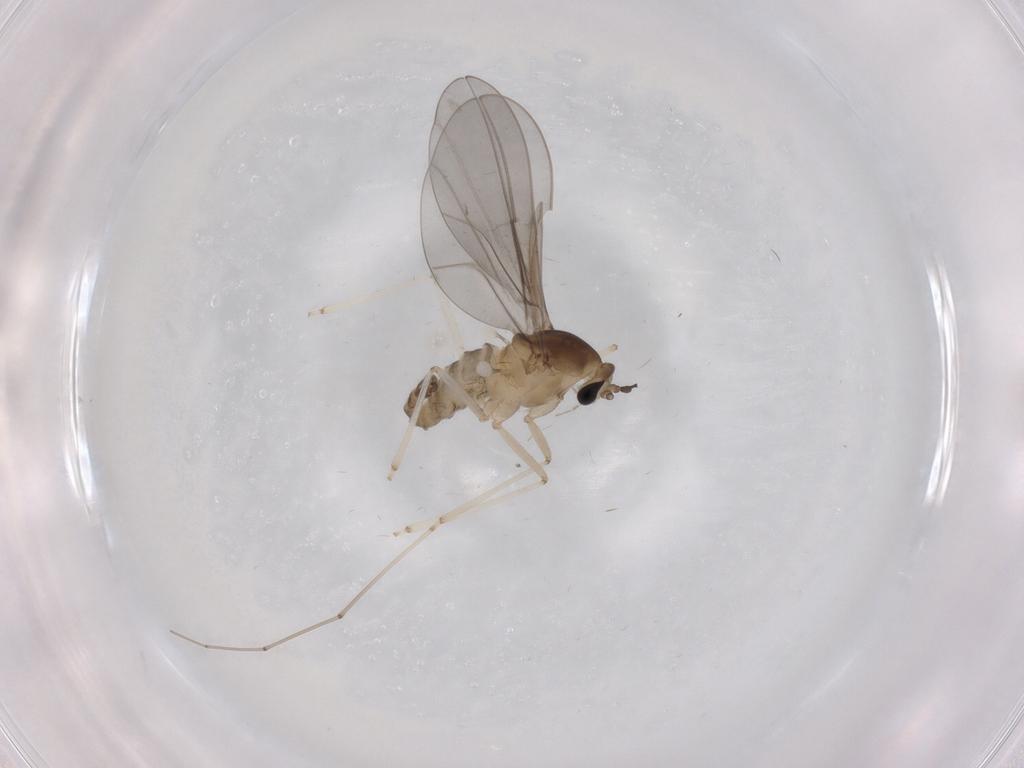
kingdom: Animalia
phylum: Arthropoda
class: Insecta
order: Diptera
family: Cecidomyiidae
